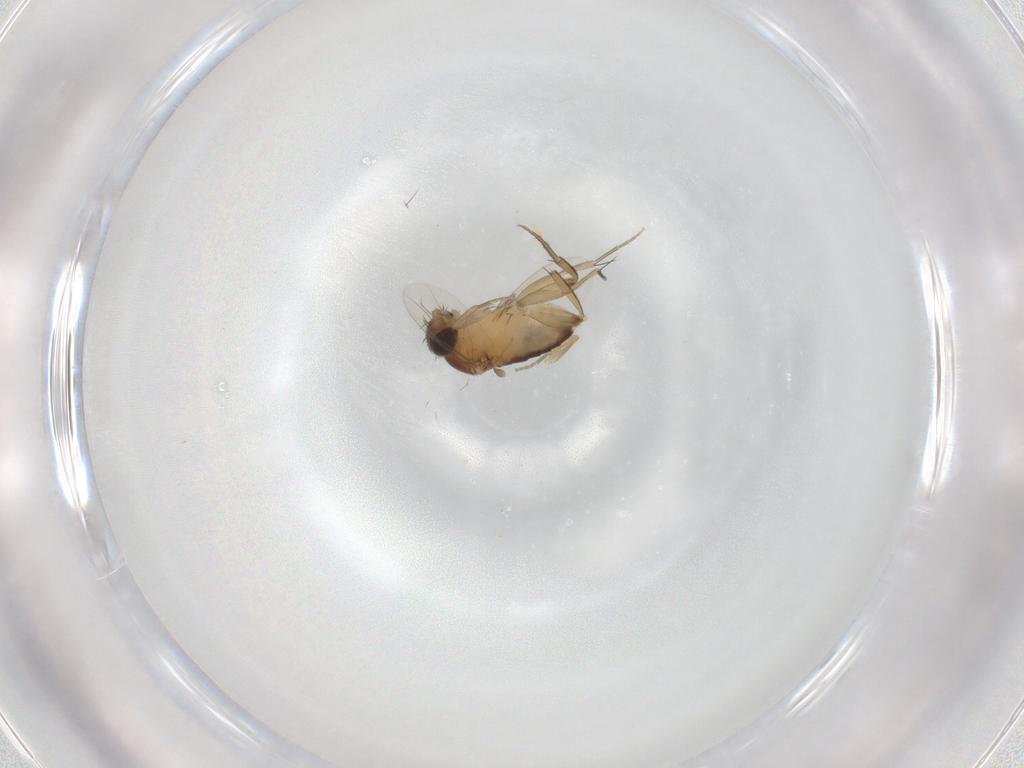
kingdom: Animalia
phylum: Arthropoda
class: Insecta
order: Diptera
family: Phoridae
